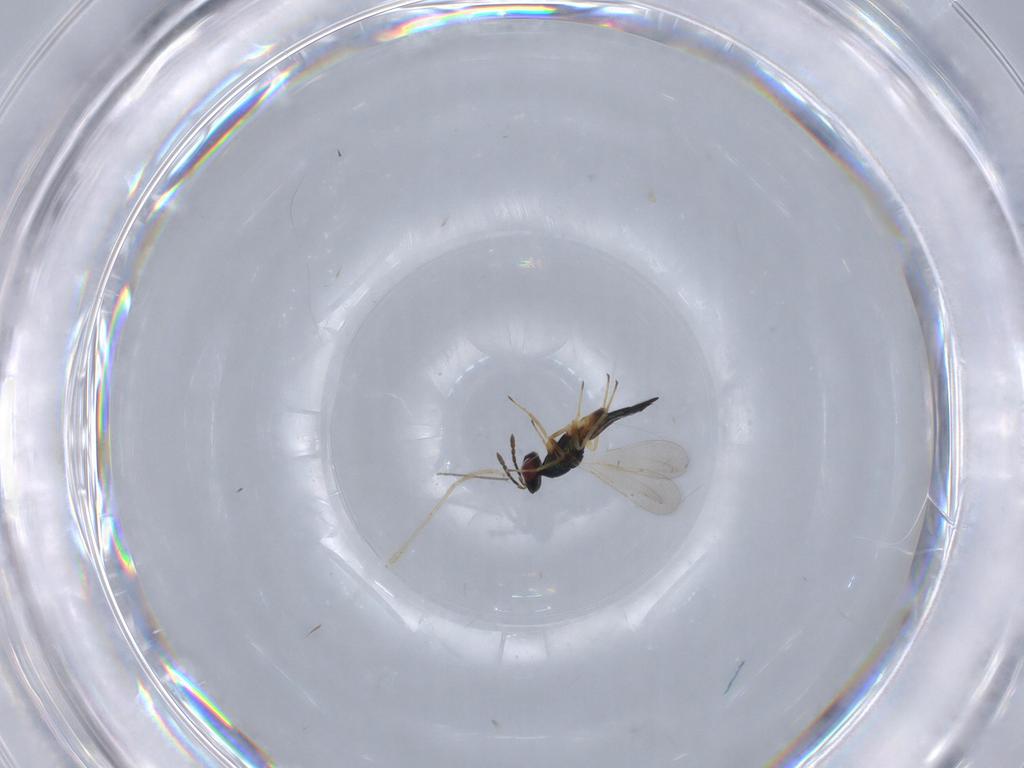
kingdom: Animalia
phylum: Arthropoda
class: Insecta
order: Hymenoptera
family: Eulophidae
